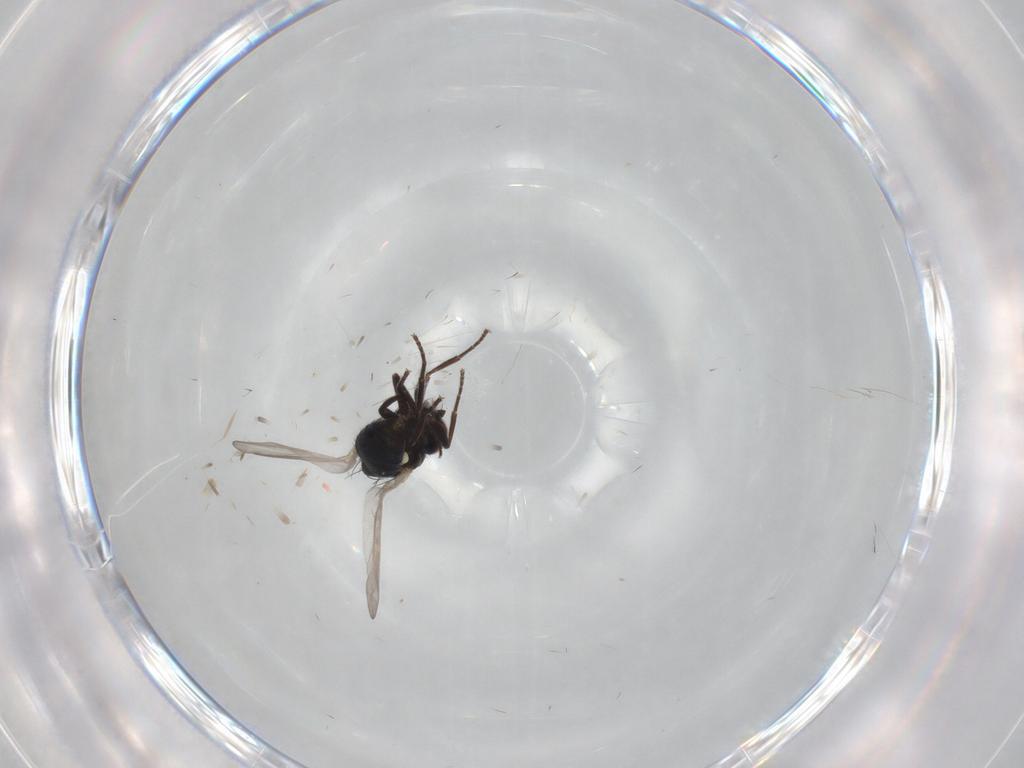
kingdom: Animalia
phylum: Arthropoda
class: Insecta
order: Diptera
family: Agromyzidae
